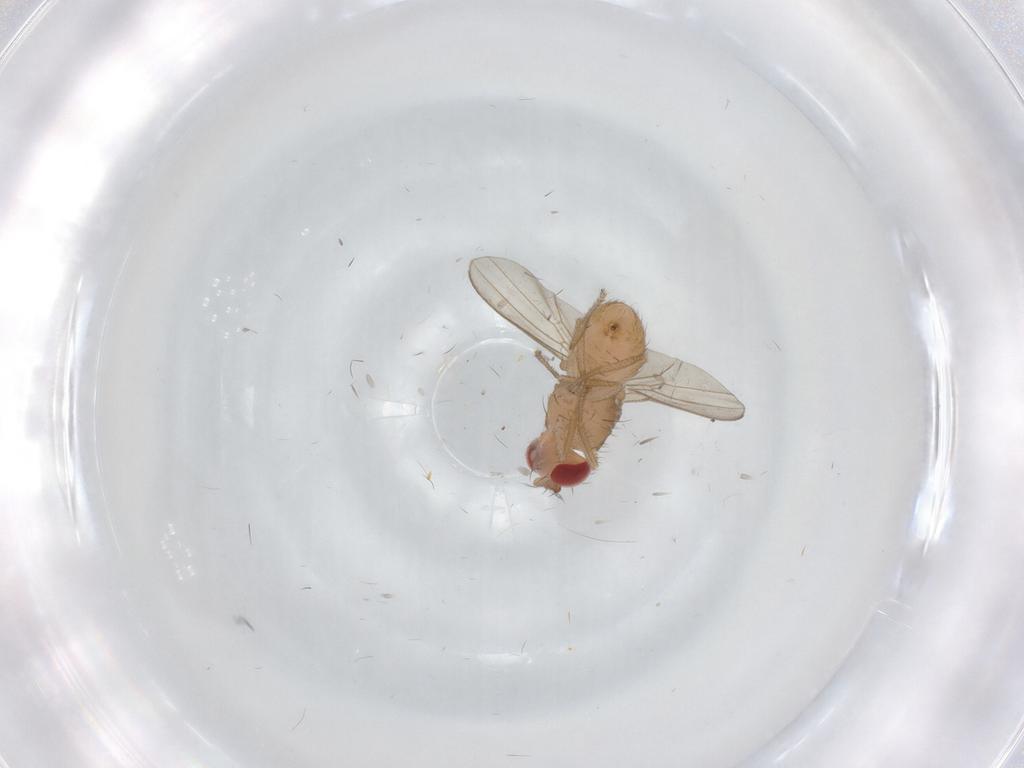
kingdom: Animalia
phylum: Arthropoda
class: Insecta
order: Diptera
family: Drosophilidae
